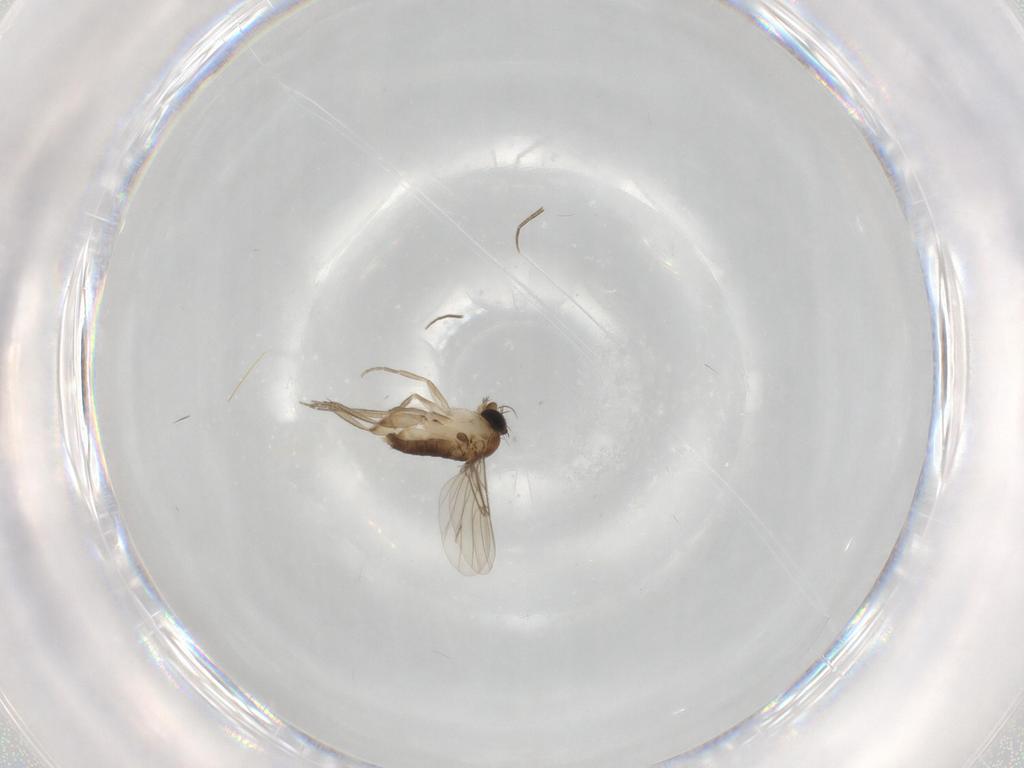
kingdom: Animalia
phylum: Arthropoda
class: Insecta
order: Diptera
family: Phoridae
